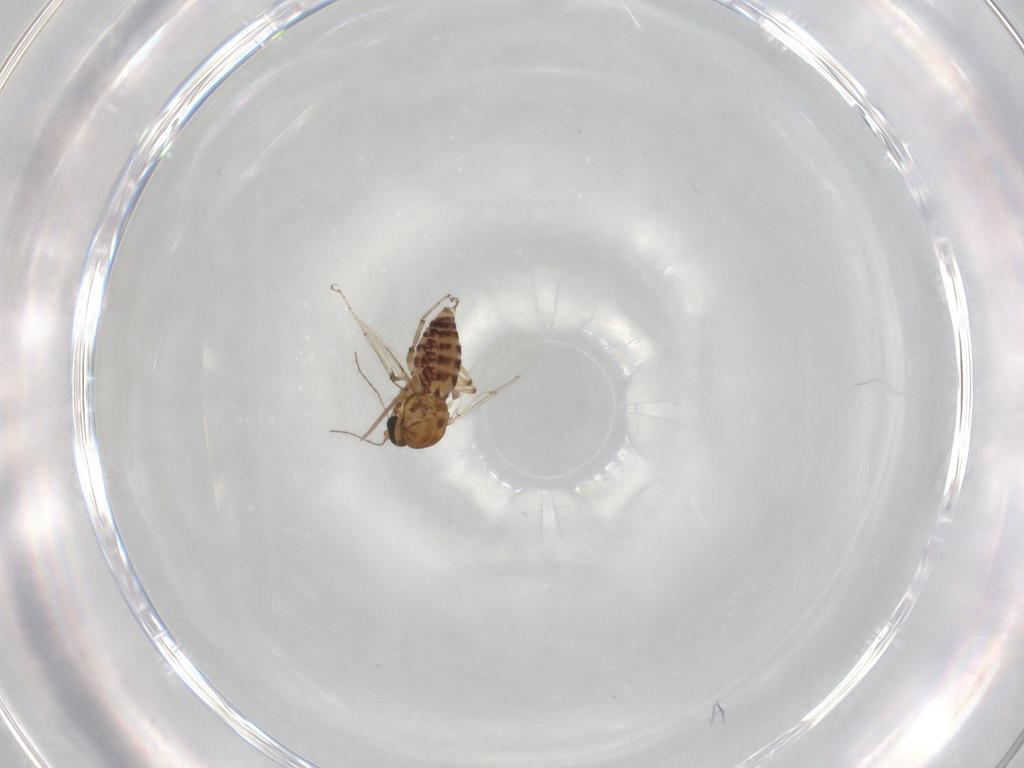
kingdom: Animalia
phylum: Arthropoda
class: Insecta
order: Diptera
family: Ceratopogonidae
